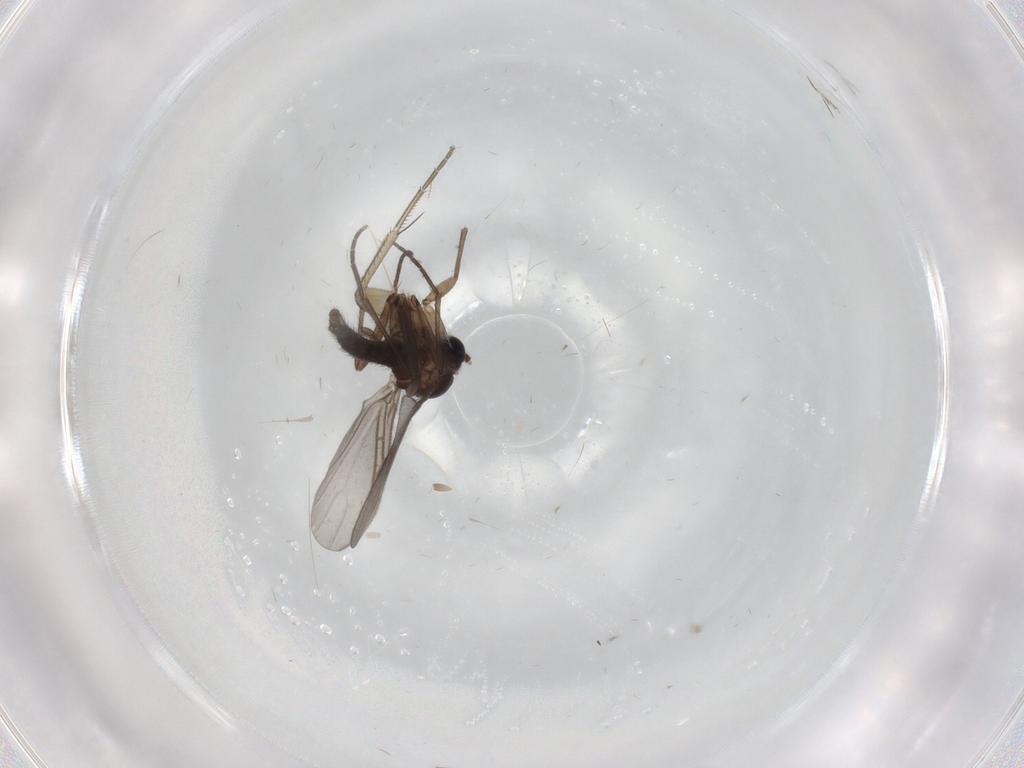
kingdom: Animalia
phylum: Arthropoda
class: Insecta
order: Diptera
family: Sciaridae
